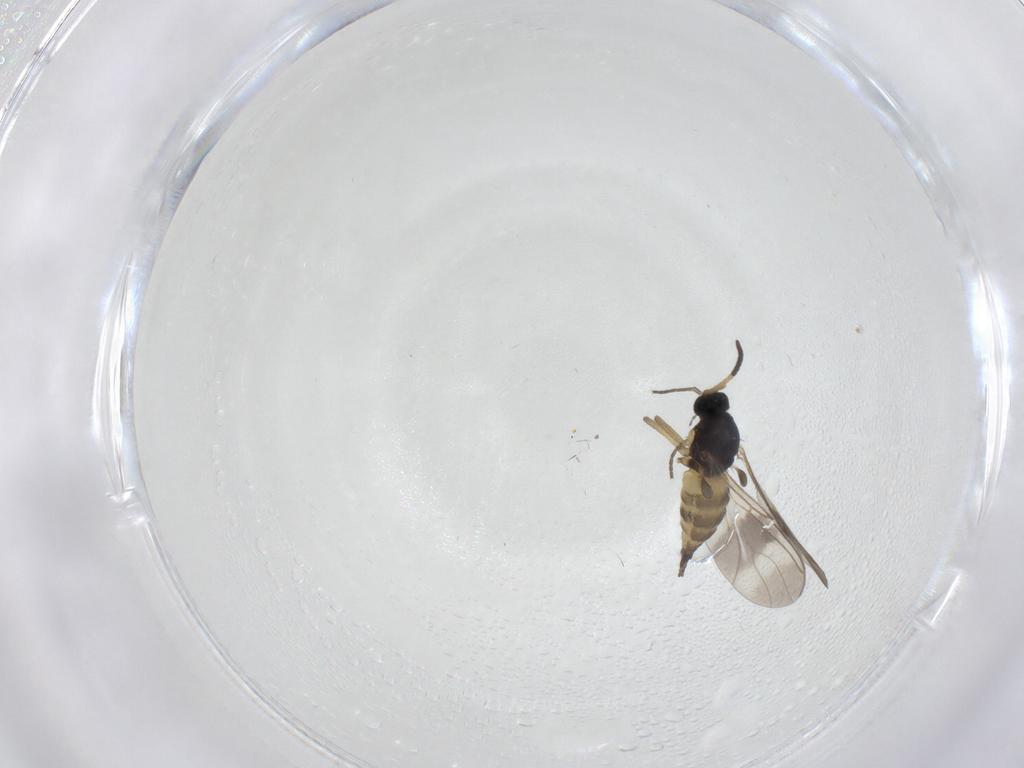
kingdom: Animalia
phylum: Arthropoda
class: Insecta
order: Diptera
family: Sciaridae
